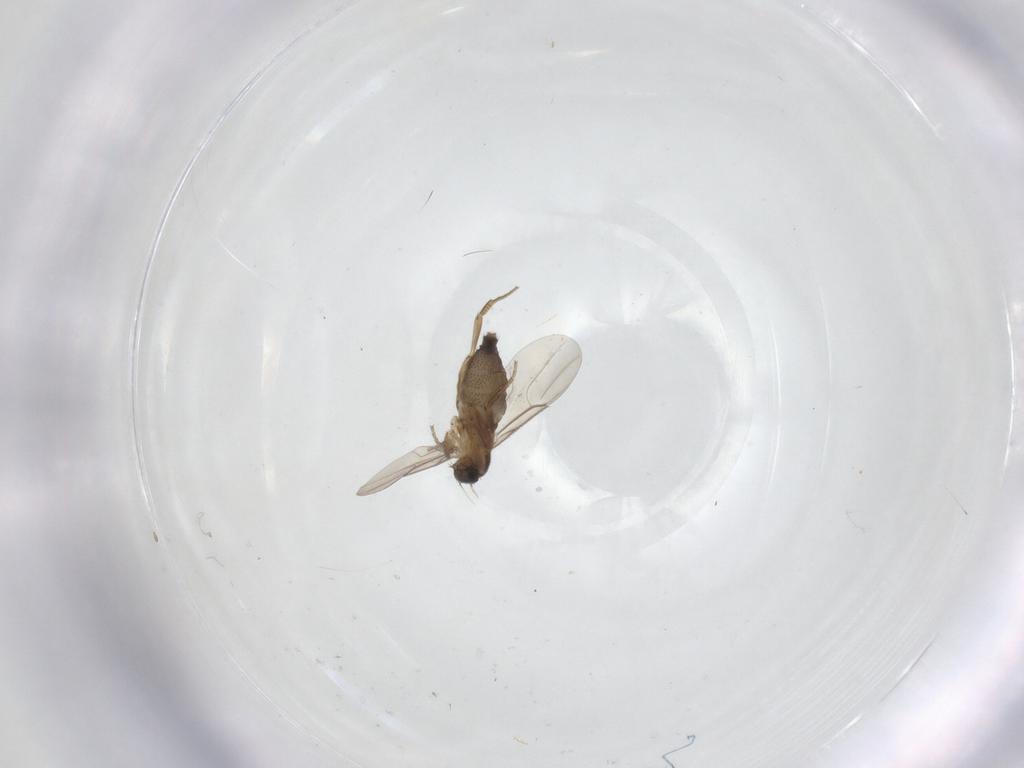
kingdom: Animalia
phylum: Arthropoda
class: Insecta
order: Diptera
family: Phoridae
